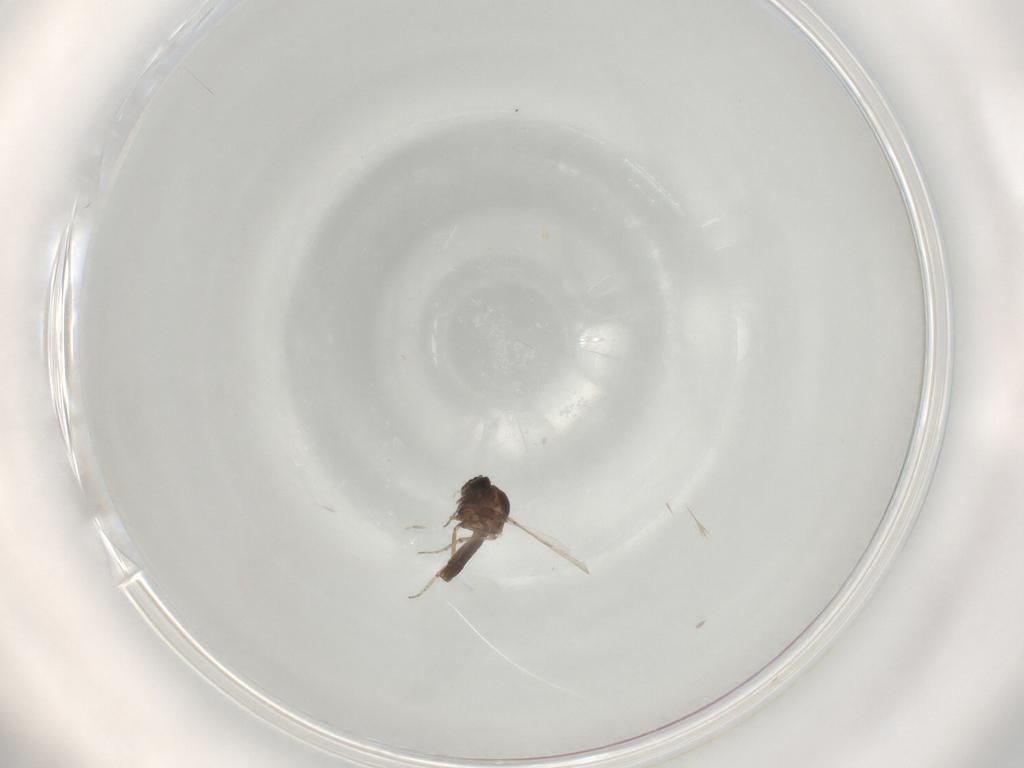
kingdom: Animalia
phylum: Arthropoda
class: Insecta
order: Diptera
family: Ceratopogonidae
